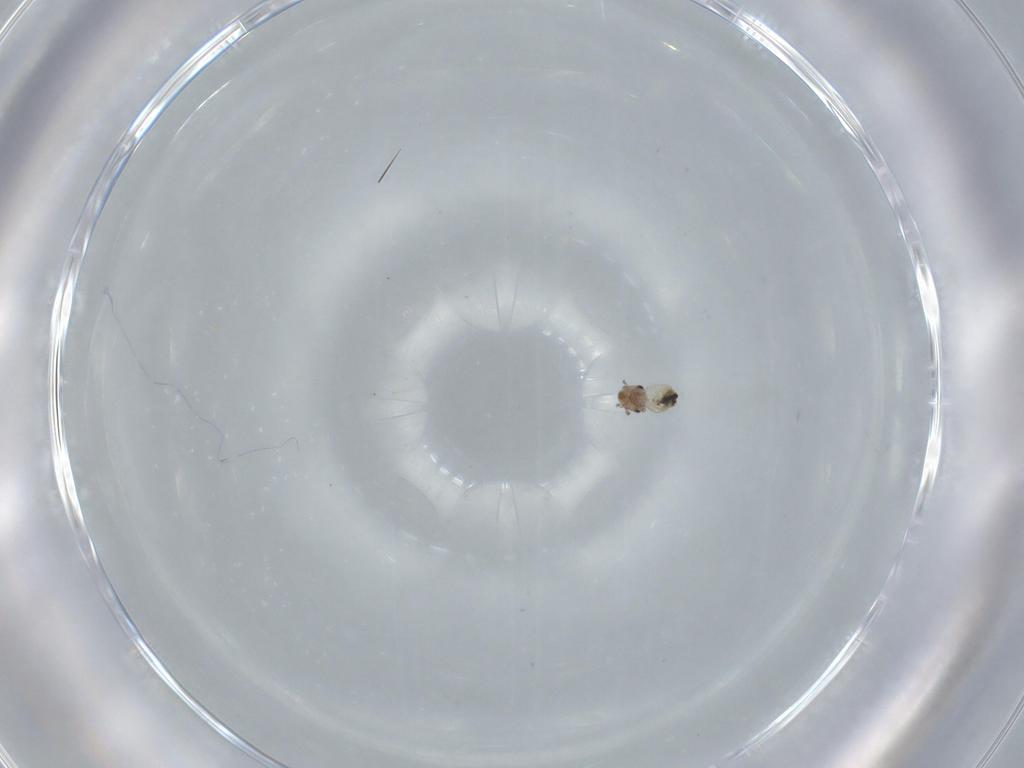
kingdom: Animalia
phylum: Arthropoda
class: Insecta
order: Psocodea
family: Lepidopsocidae
